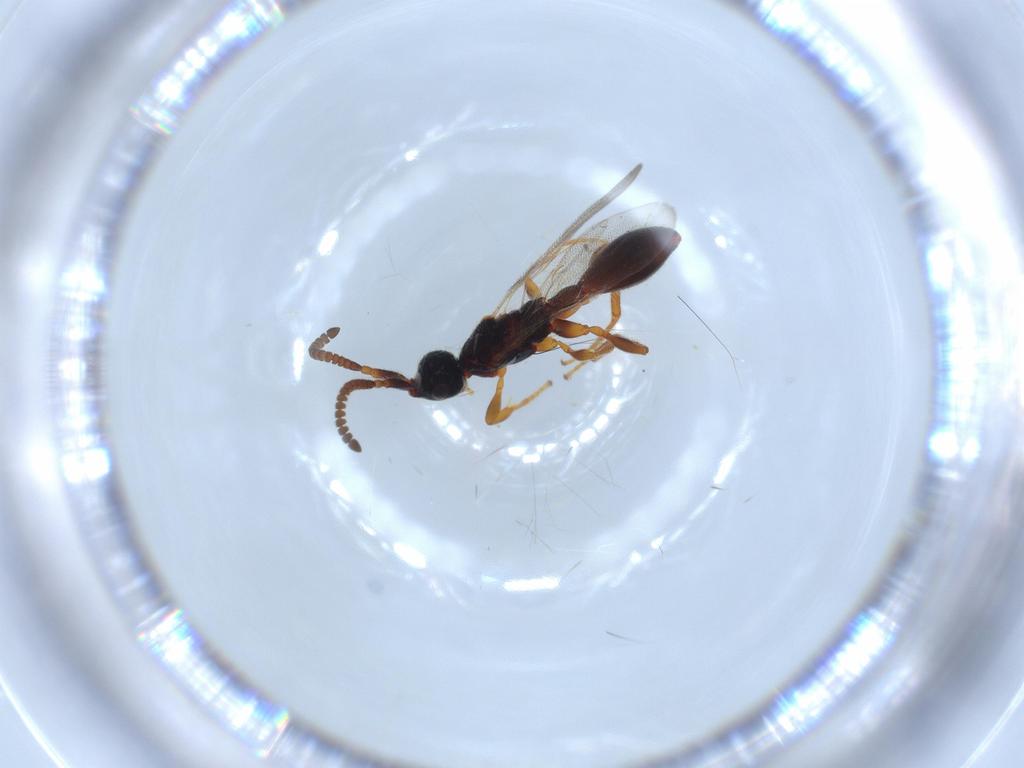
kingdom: Animalia
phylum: Arthropoda
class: Insecta
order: Hymenoptera
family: Diapriidae
